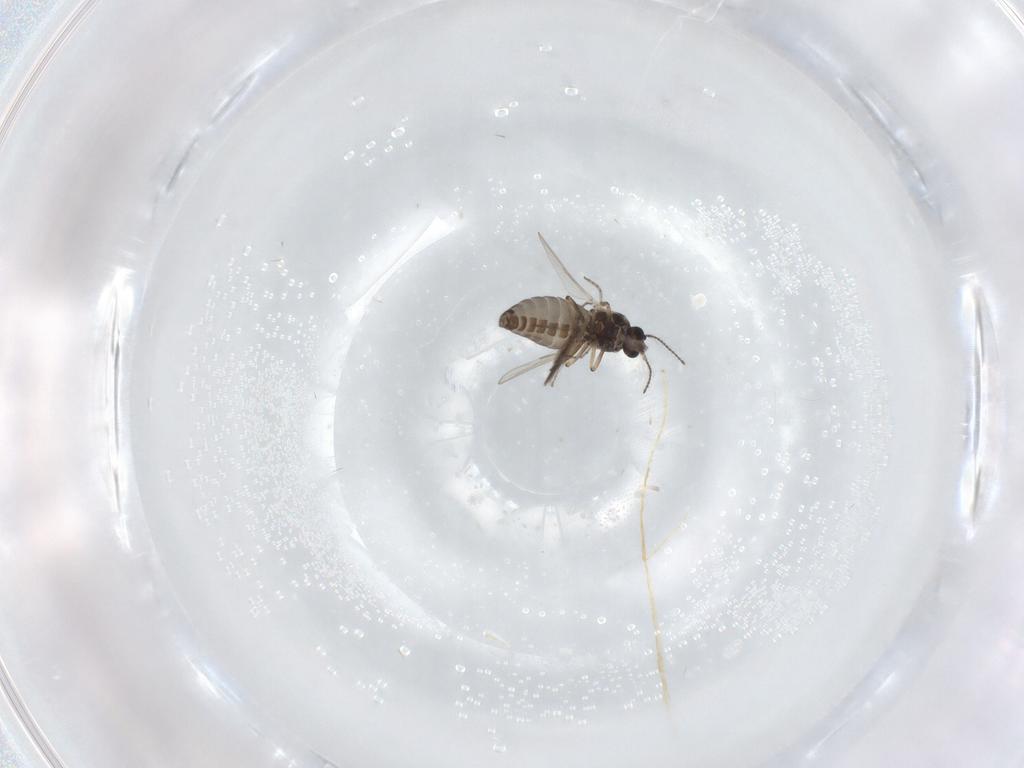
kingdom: Animalia
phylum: Arthropoda
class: Insecta
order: Diptera
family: Ceratopogonidae
